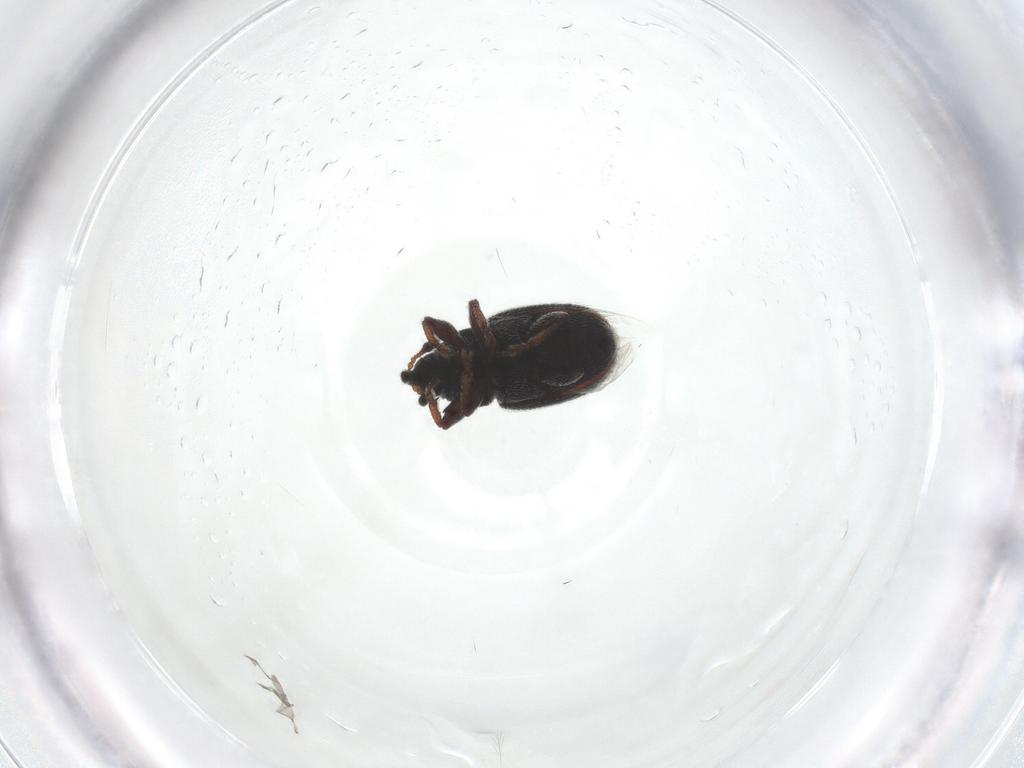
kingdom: Animalia
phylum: Arthropoda
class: Insecta
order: Coleoptera
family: Curculionidae
